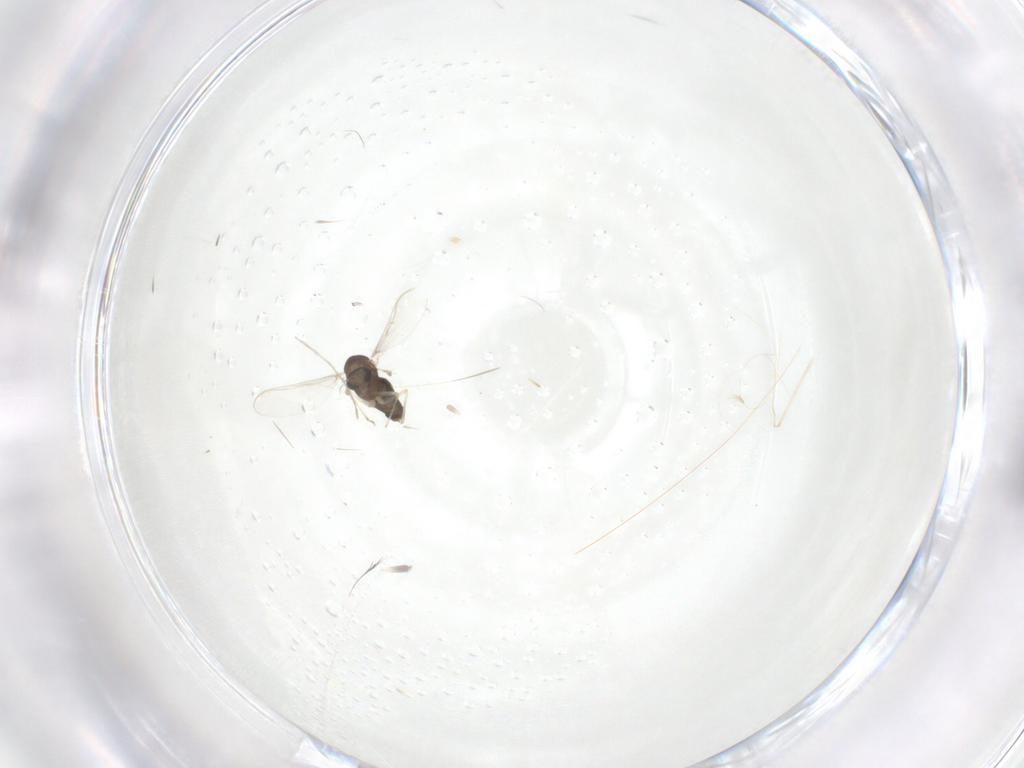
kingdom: Animalia
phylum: Arthropoda
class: Insecta
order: Diptera
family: Chironomidae
